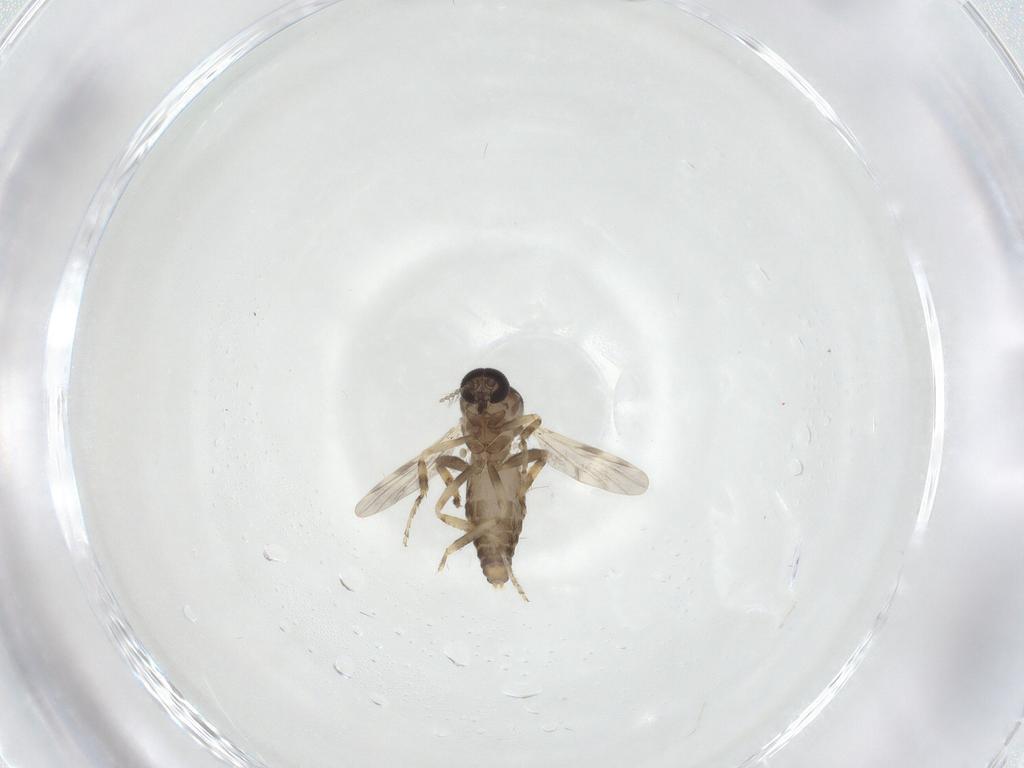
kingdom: Animalia
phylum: Arthropoda
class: Insecta
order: Diptera
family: Ceratopogonidae
